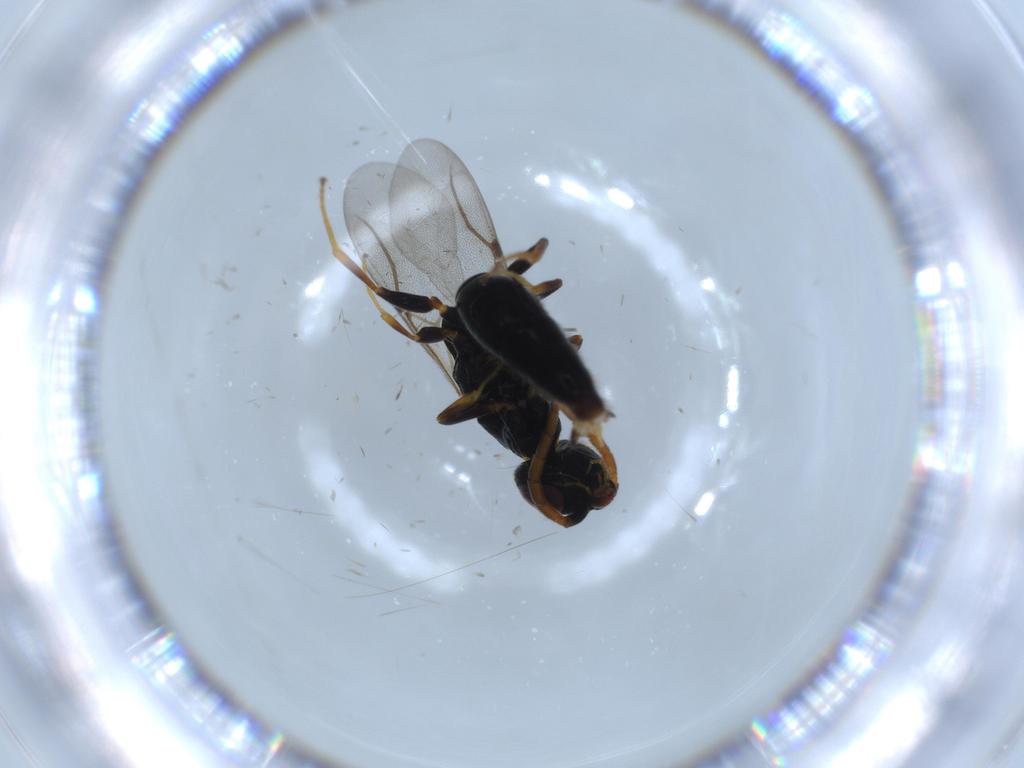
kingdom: Animalia
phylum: Arthropoda
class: Insecta
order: Hymenoptera
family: Bethylidae
